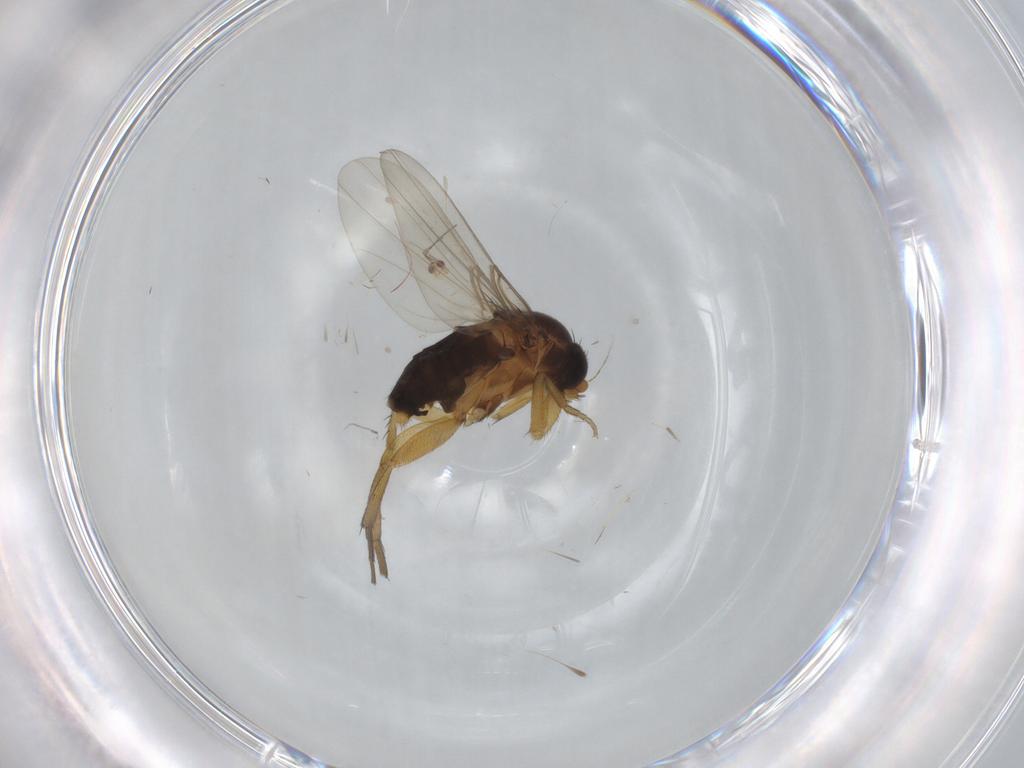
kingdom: Animalia
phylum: Arthropoda
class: Insecta
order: Diptera
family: Phoridae
